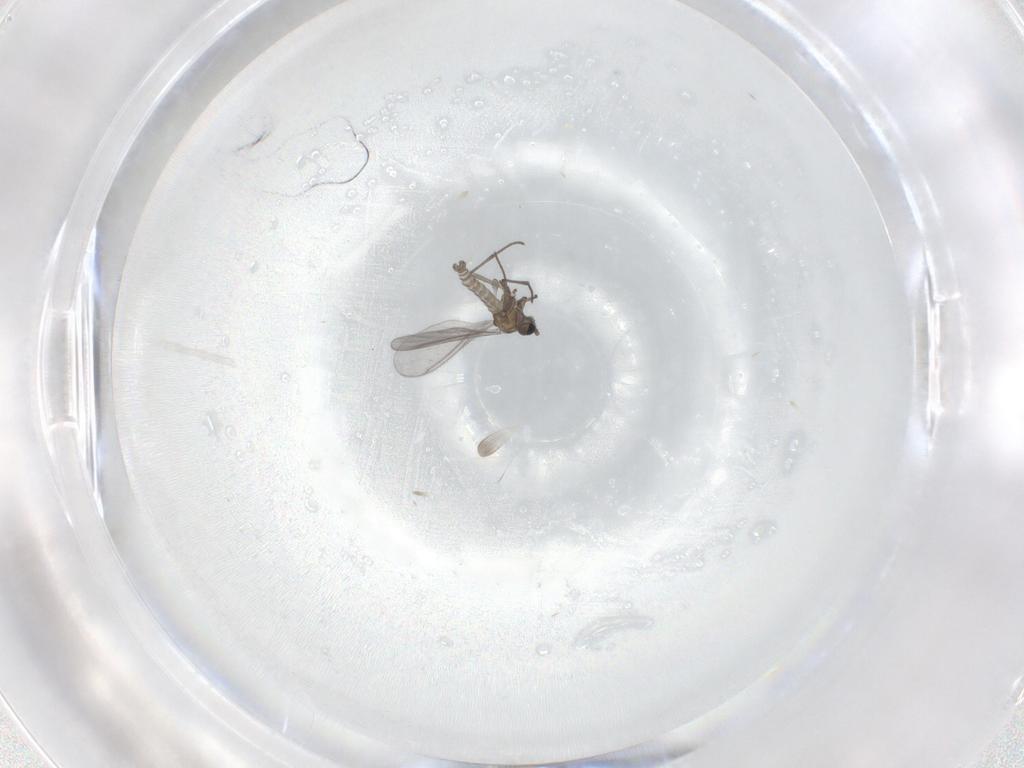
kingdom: Animalia
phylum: Arthropoda
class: Insecta
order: Diptera
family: Sciaridae
